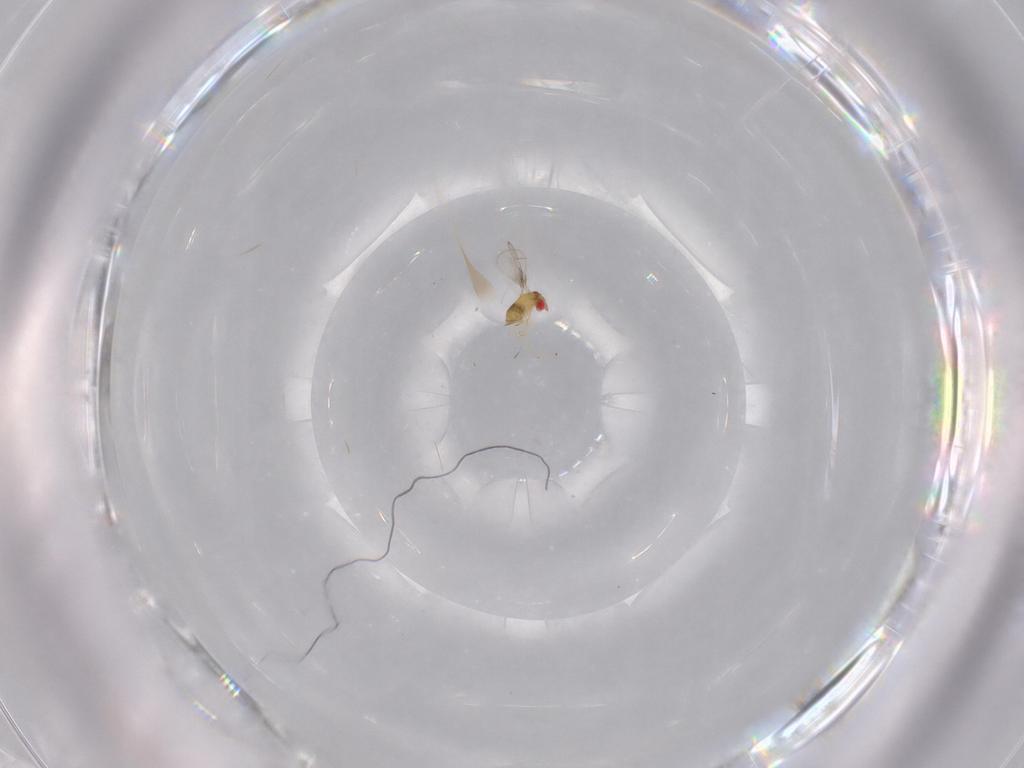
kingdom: Animalia
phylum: Arthropoda
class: Insecta
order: Hymenoptera
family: Trichogrammatidae
